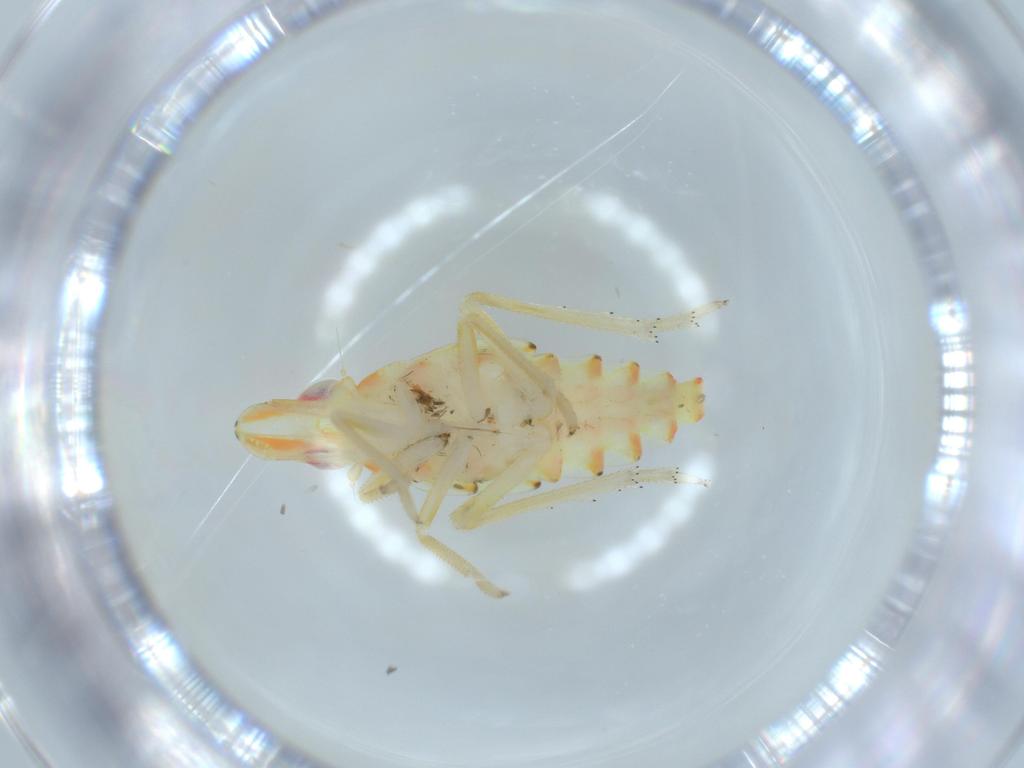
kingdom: Animalia
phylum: Arthropoda
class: Insecta
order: Hemiptera
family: Tropiduchidae
